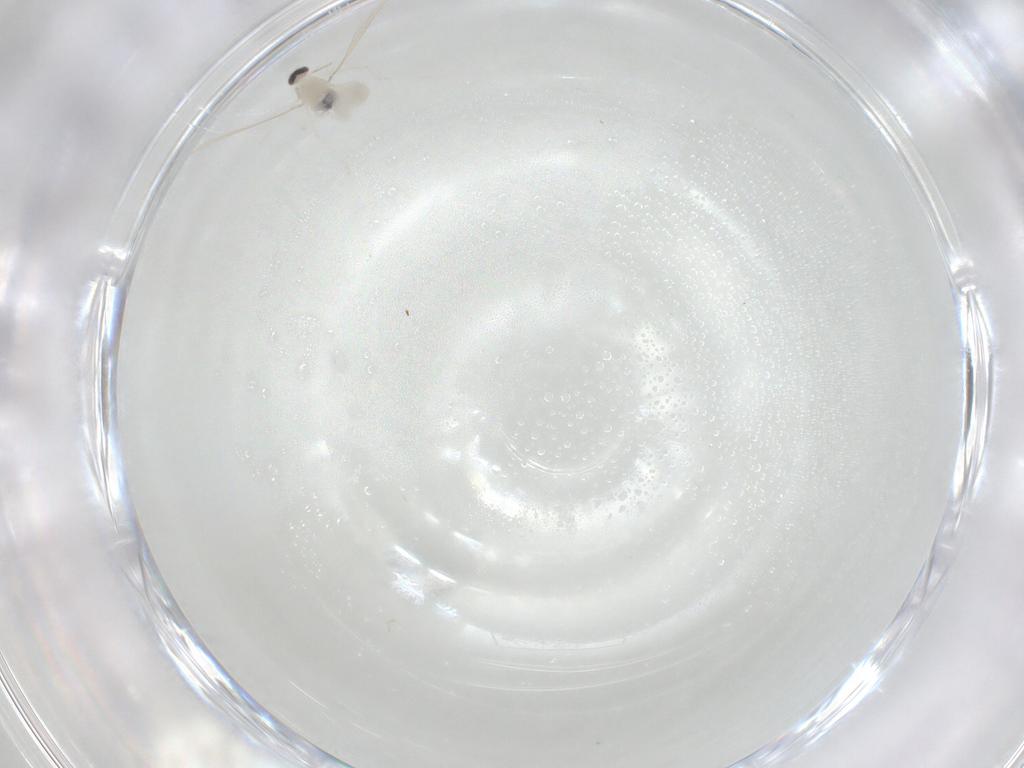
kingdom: Animalia
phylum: Arthropoda
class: Insecta
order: Diptera
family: Cecidomyiidae
